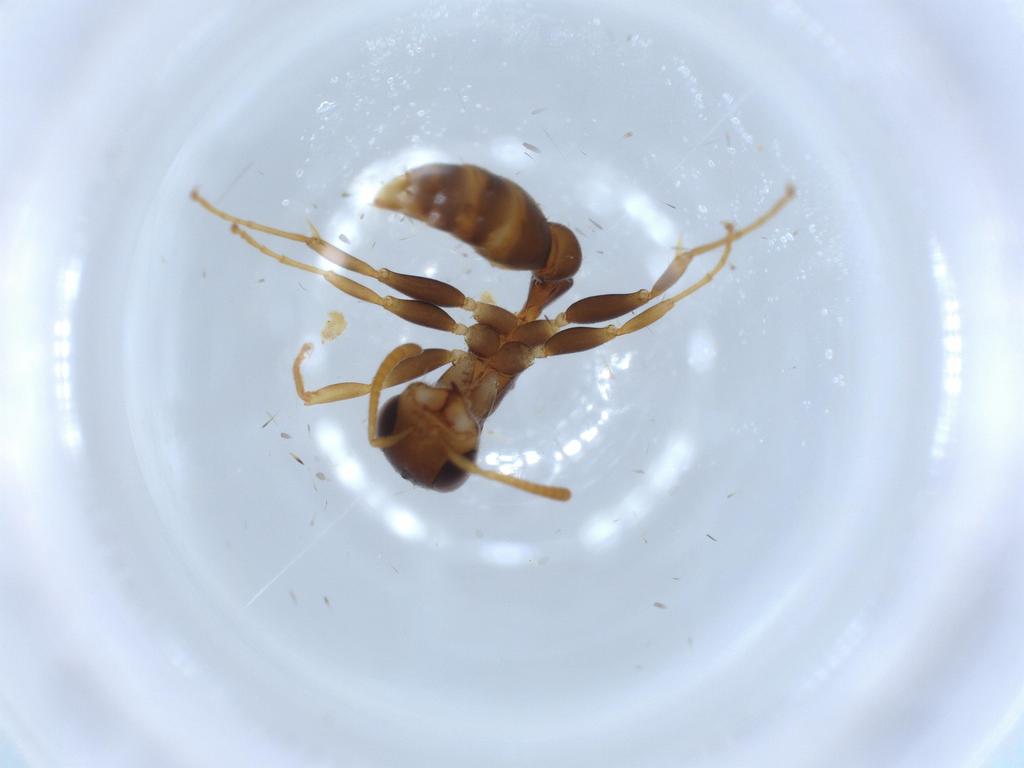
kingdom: Animalia
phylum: Arthropoda
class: Insecta
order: Hymenoptera
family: Formicidae
